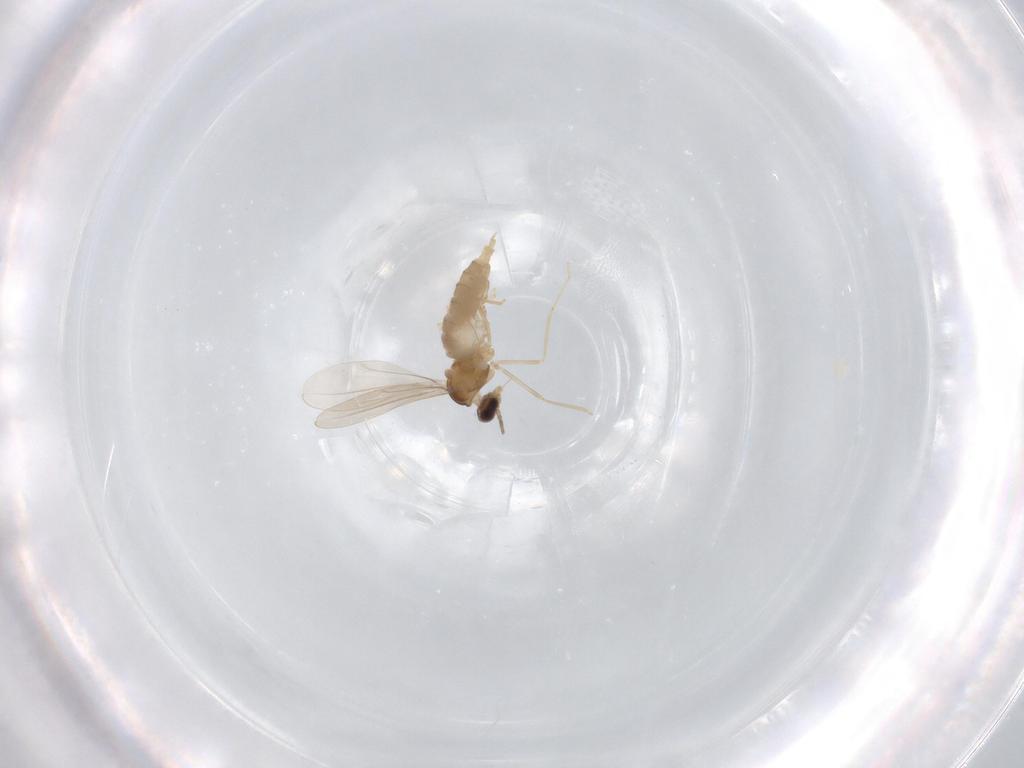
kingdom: Animalia
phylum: Arthropoda
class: Insecta
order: Diptera
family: Cecidomyiidae
